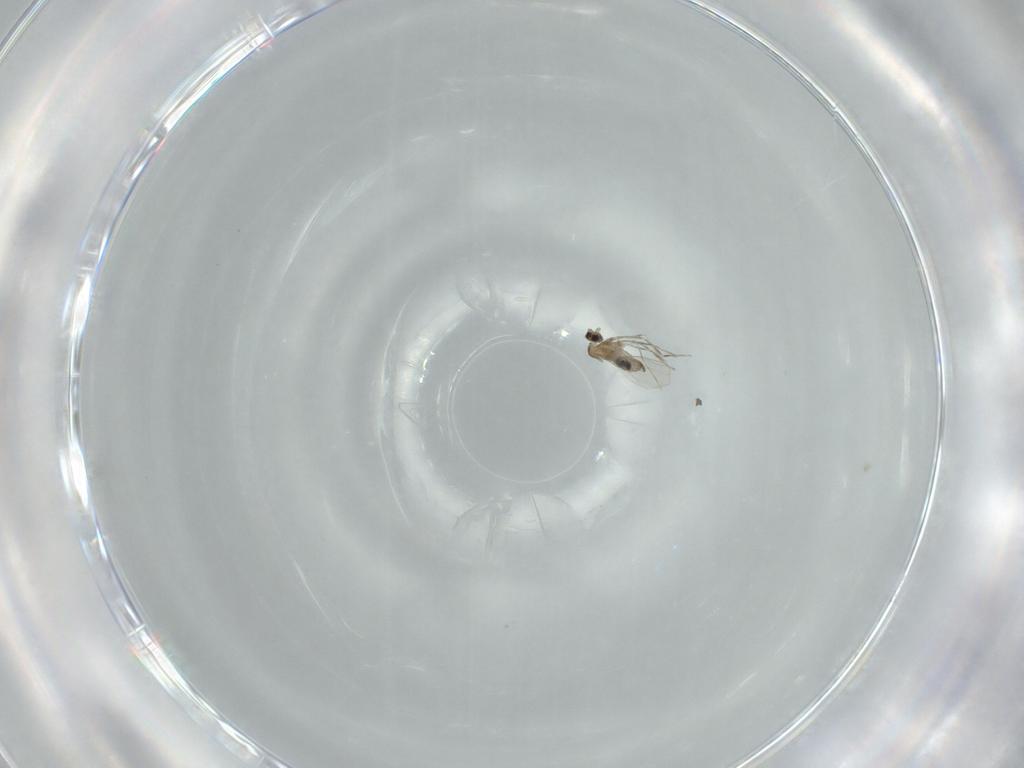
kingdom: Animalia
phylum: Arthropoda
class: Insecta
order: Diptera
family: Cecidomyiidae
